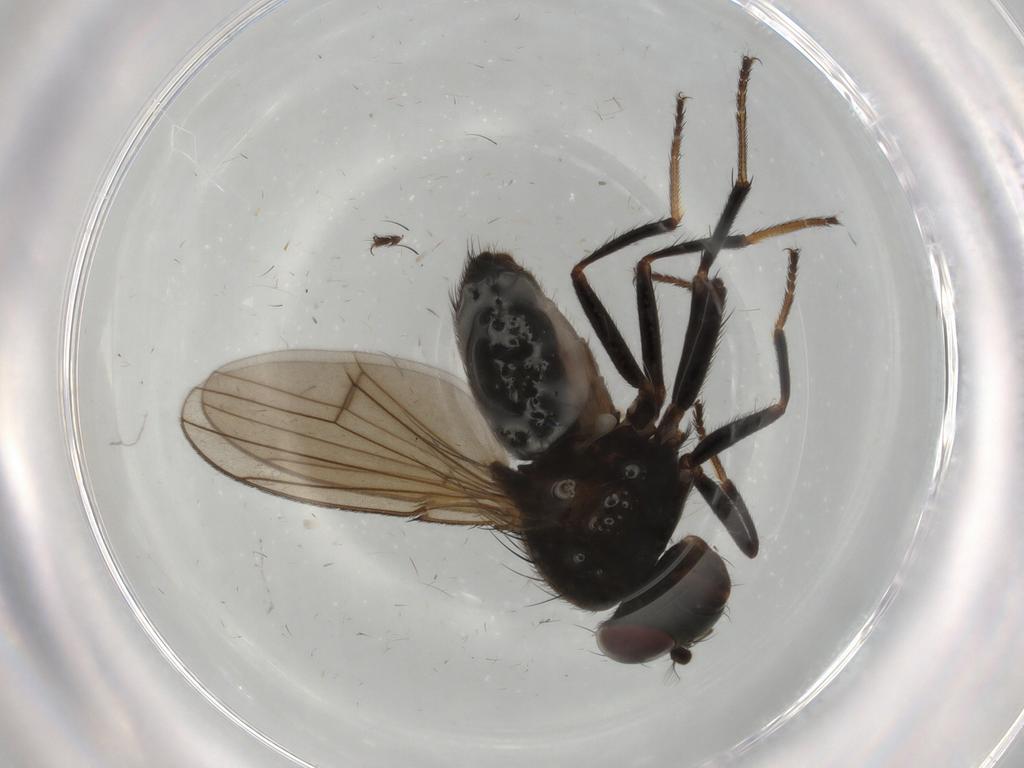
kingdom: Animalia
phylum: Arthropoda
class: Insecta
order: Diptera
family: Ephydridae
